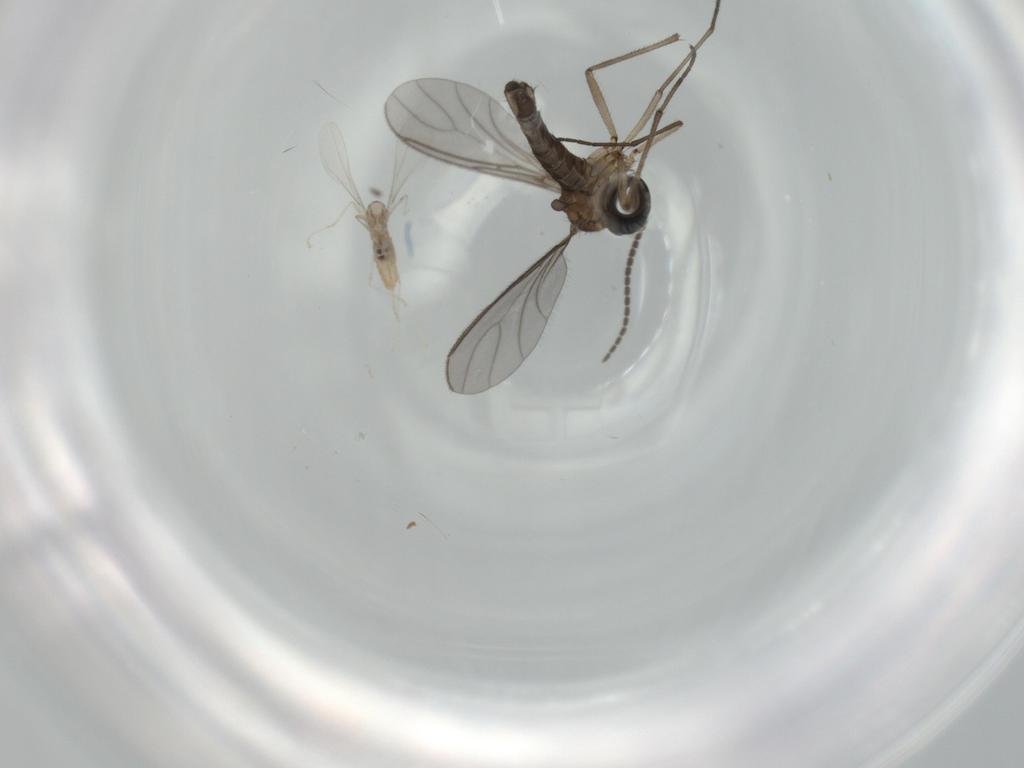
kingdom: Animalia
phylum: Arthropoda
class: Insecta
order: Diptera
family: Cecidomyiidae
